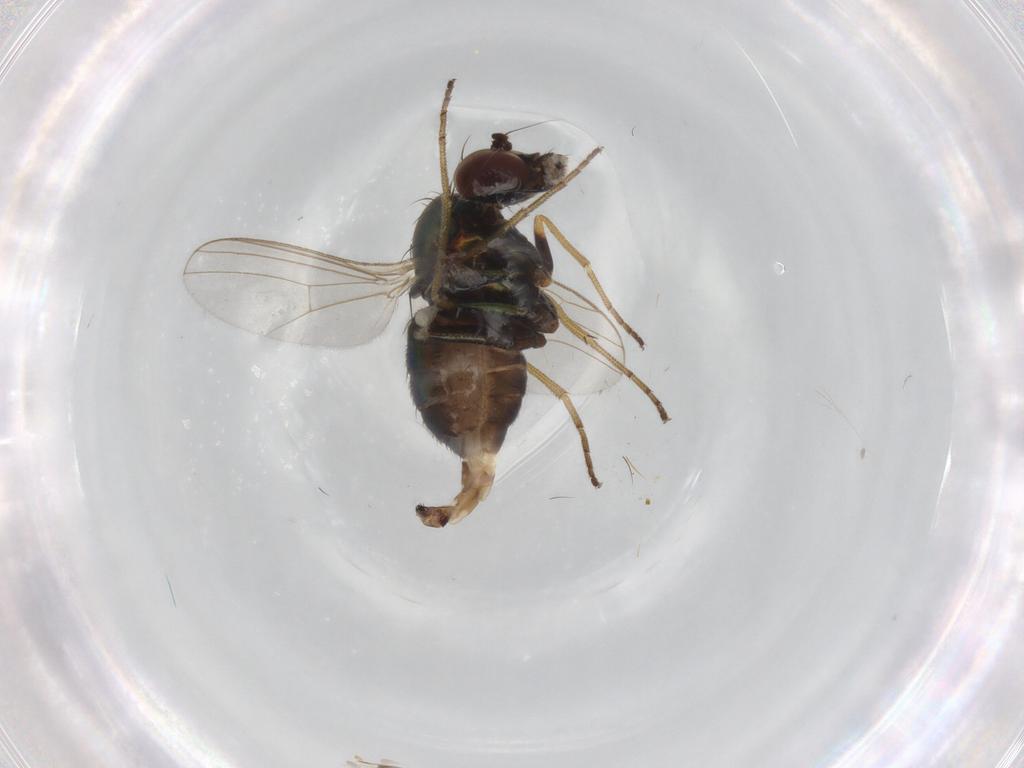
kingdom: Animalia
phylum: Arthropoda
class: Insecta
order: Diptera
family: Dolichopodidae
